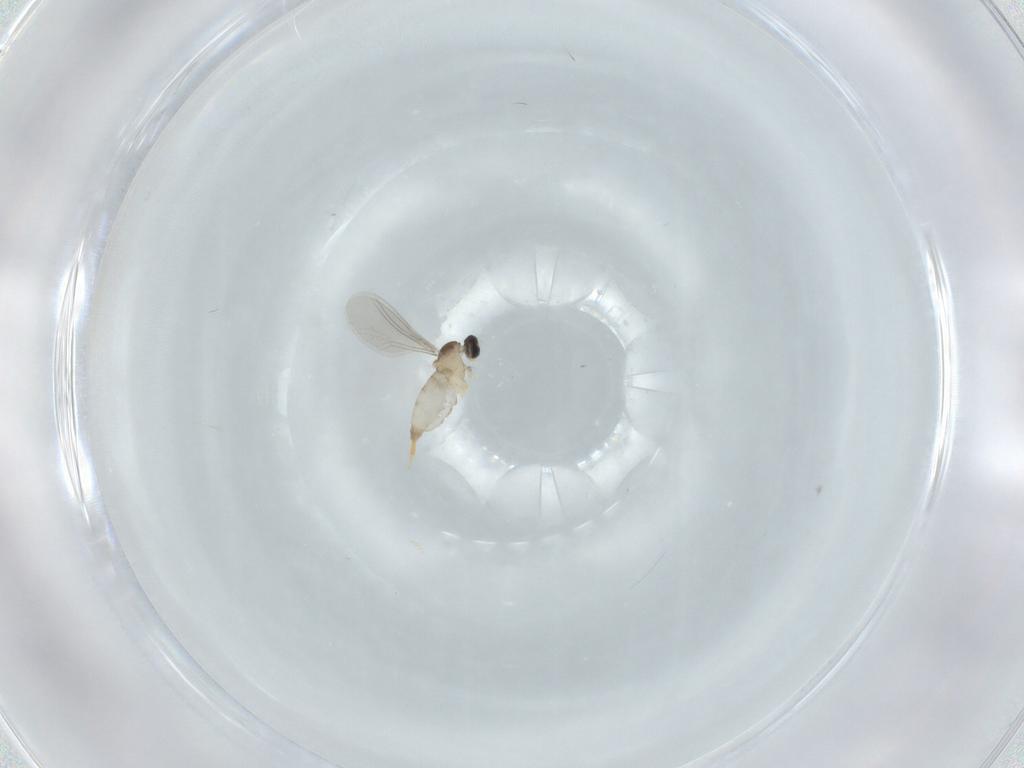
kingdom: Animalia
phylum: Arthropoda
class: Insecta
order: Diptera
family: Cecidomyiidae
